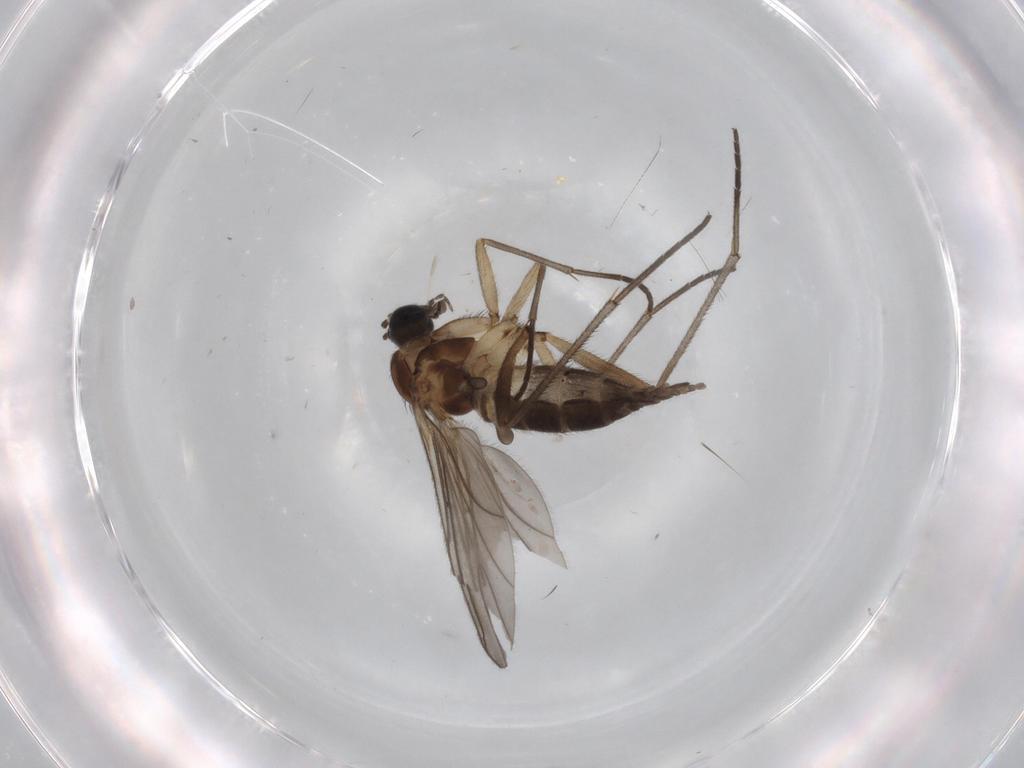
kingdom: Animalia
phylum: Arthropoda
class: Insecta
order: Diptera
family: Sciaridae
